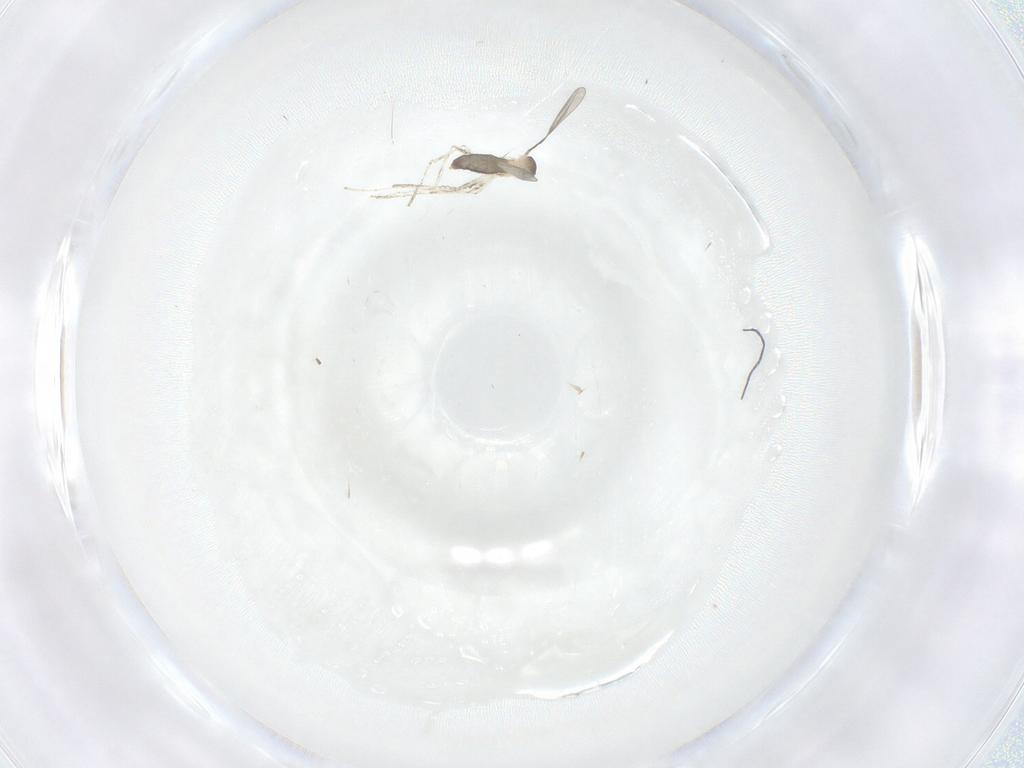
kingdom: Animalia
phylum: Arthropoda
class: Insecta
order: Diptera
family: Cecidomyiidae
